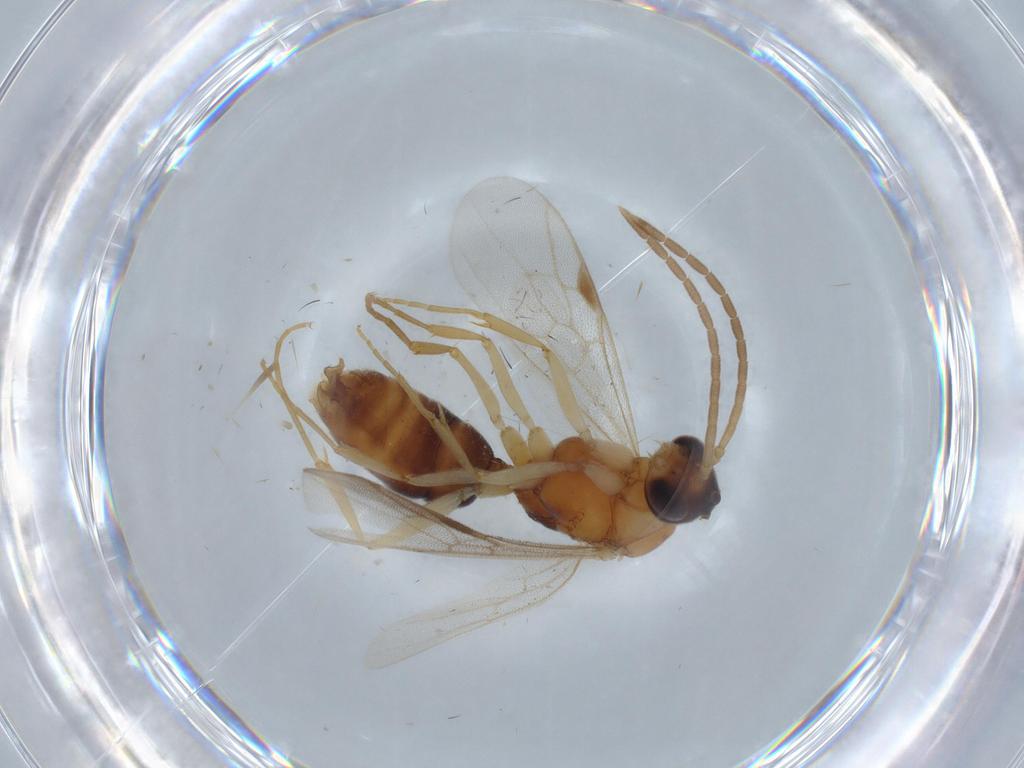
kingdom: Animalia
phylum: Arthropoda
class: Insecta
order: Hymenoptera
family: Formicidae
